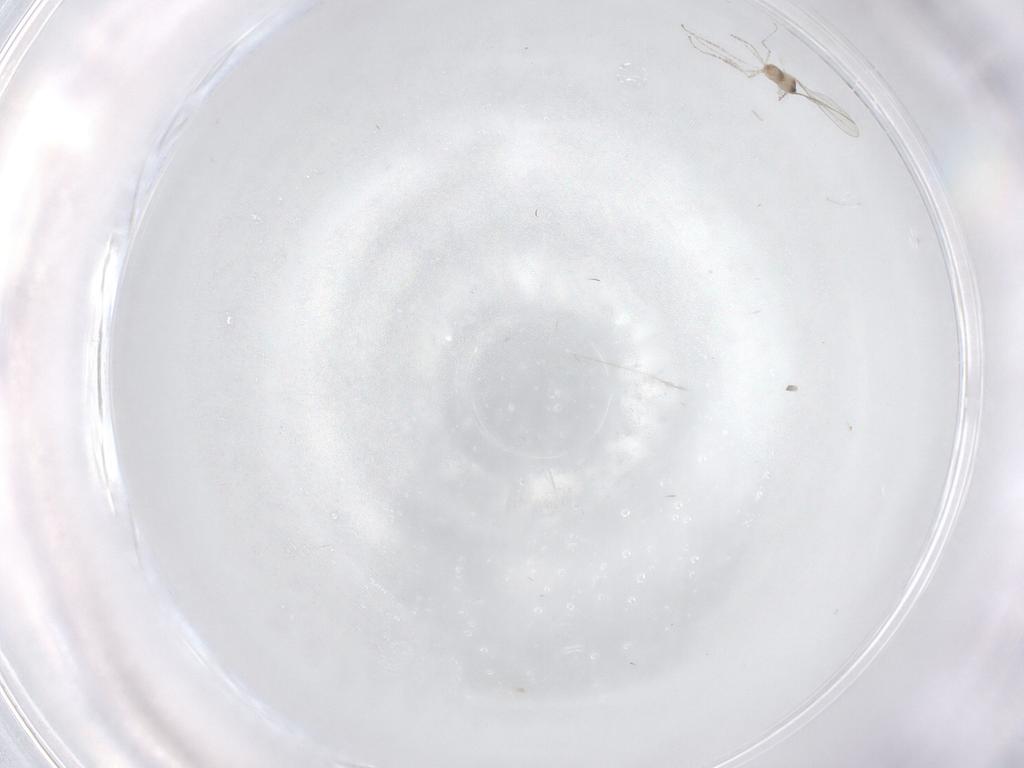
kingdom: Animalia
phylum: Arthropoda
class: Insecta
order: Diptera
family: Cecidomyiidae
